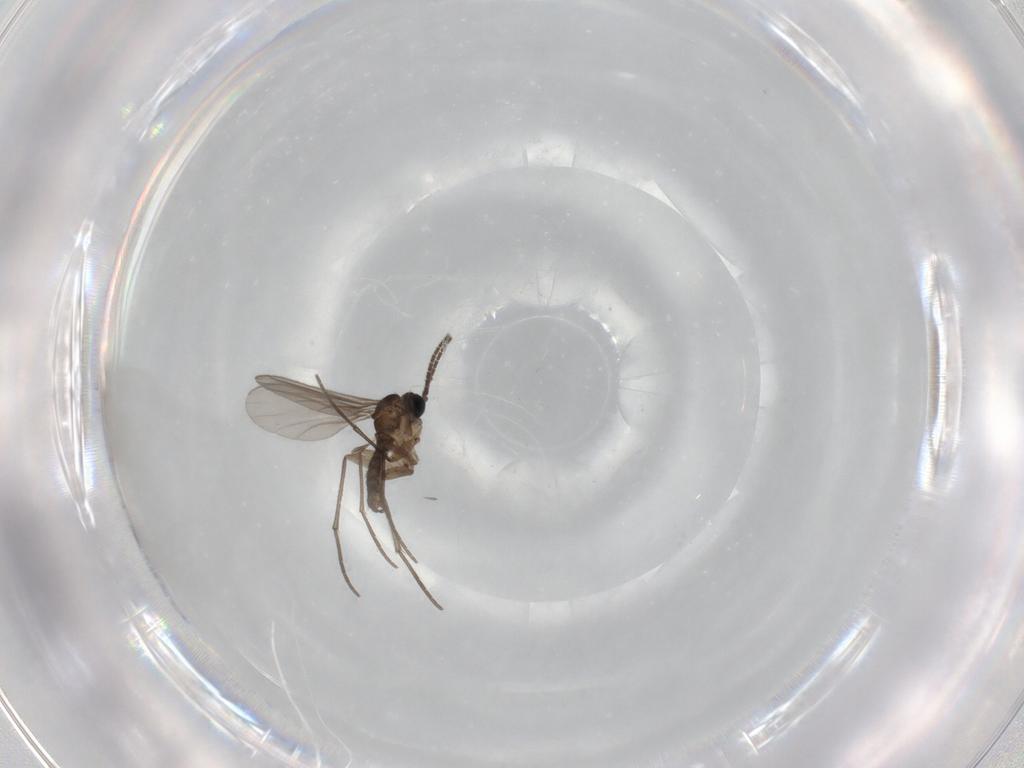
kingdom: Animalia
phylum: Arthropoda
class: Insecta
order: Diptera
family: Sciaridae
